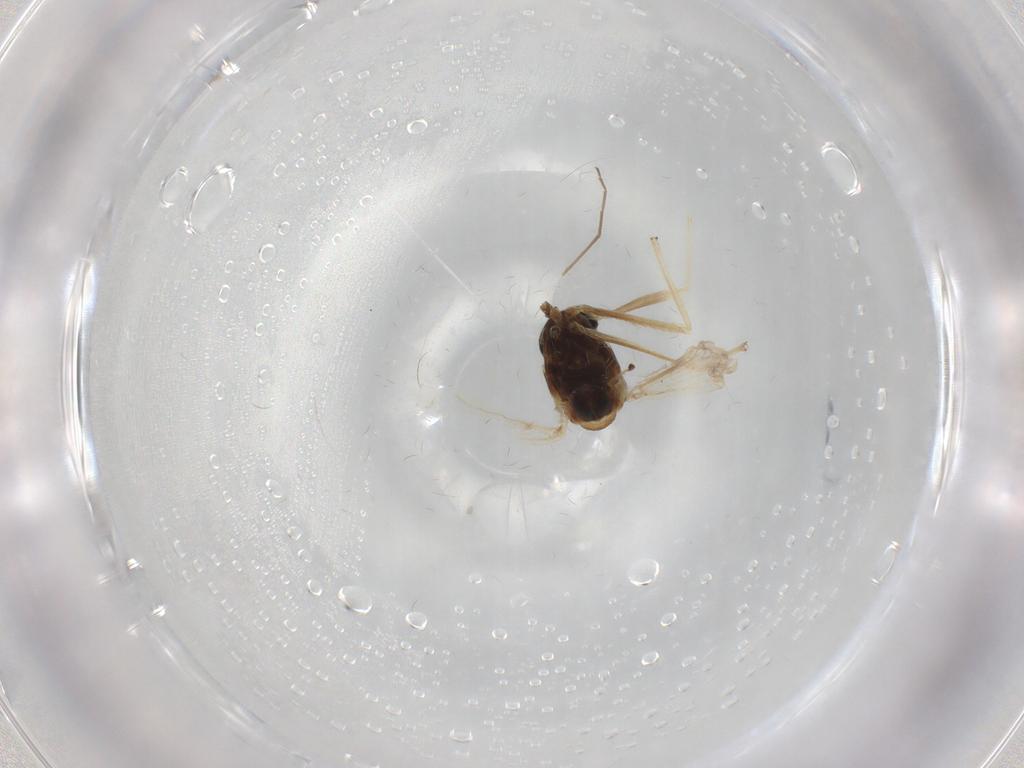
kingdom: Animalia
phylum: Arthropoda
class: Insecta
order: Diptera
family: Chironomidae
